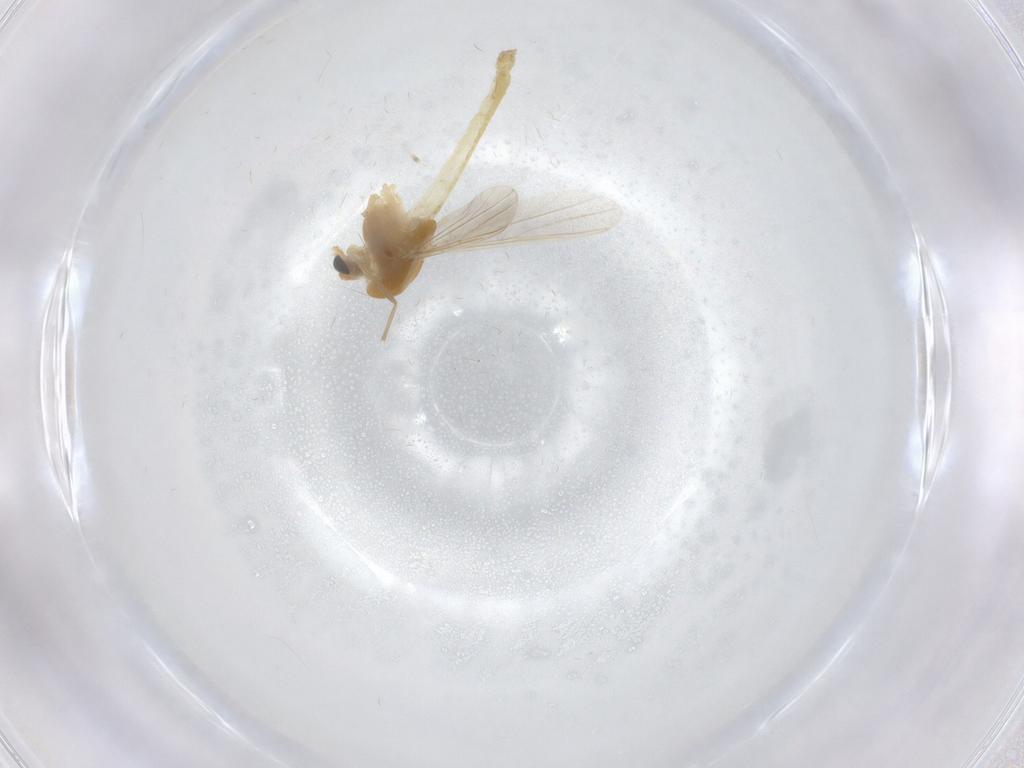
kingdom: Animalia
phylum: Arthropoda
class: Insecta
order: Diptera
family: Chironomidae
